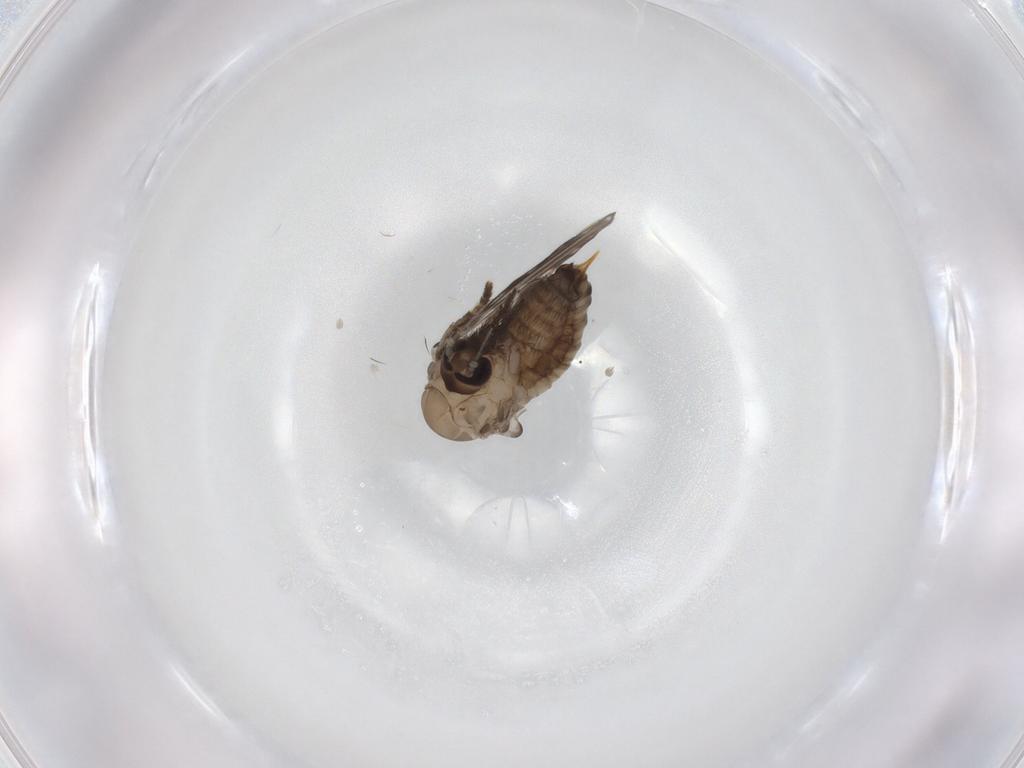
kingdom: Animalia
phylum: Arthropoda
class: Insecta
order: Diptera
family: Psychodidae
